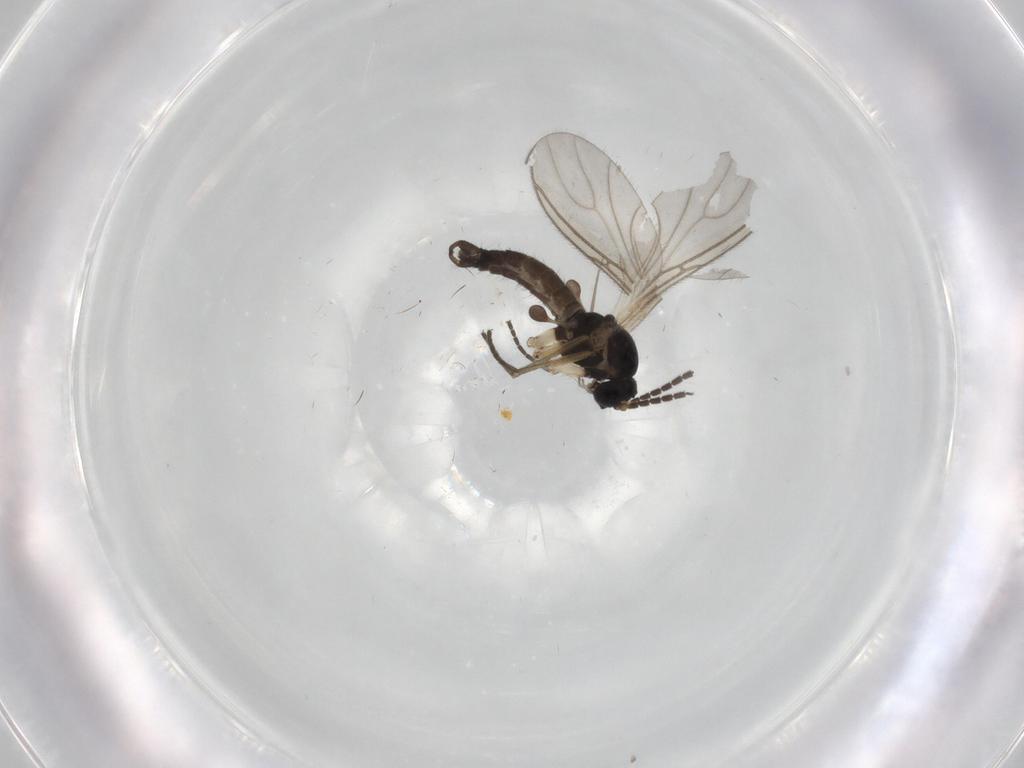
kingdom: Animalia
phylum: Arthropoda
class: Insecta
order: Diptera
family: Sciaridae
